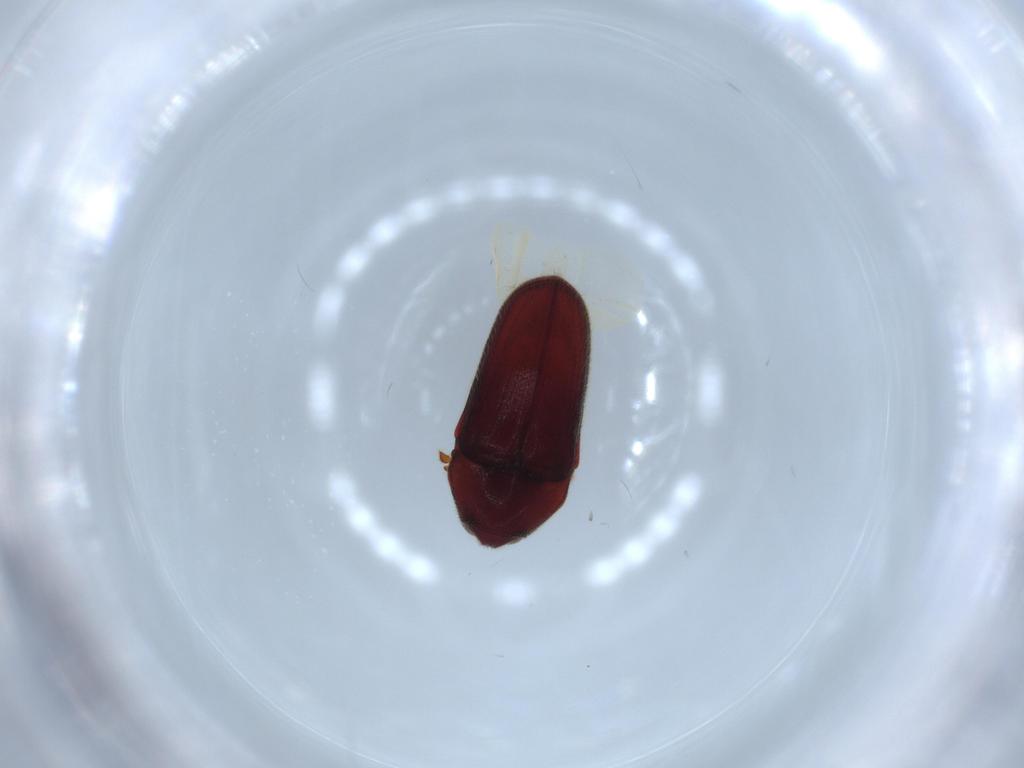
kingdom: Animalia
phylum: Arthropoda
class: Insecta
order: Coleoptera
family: Throscidae
